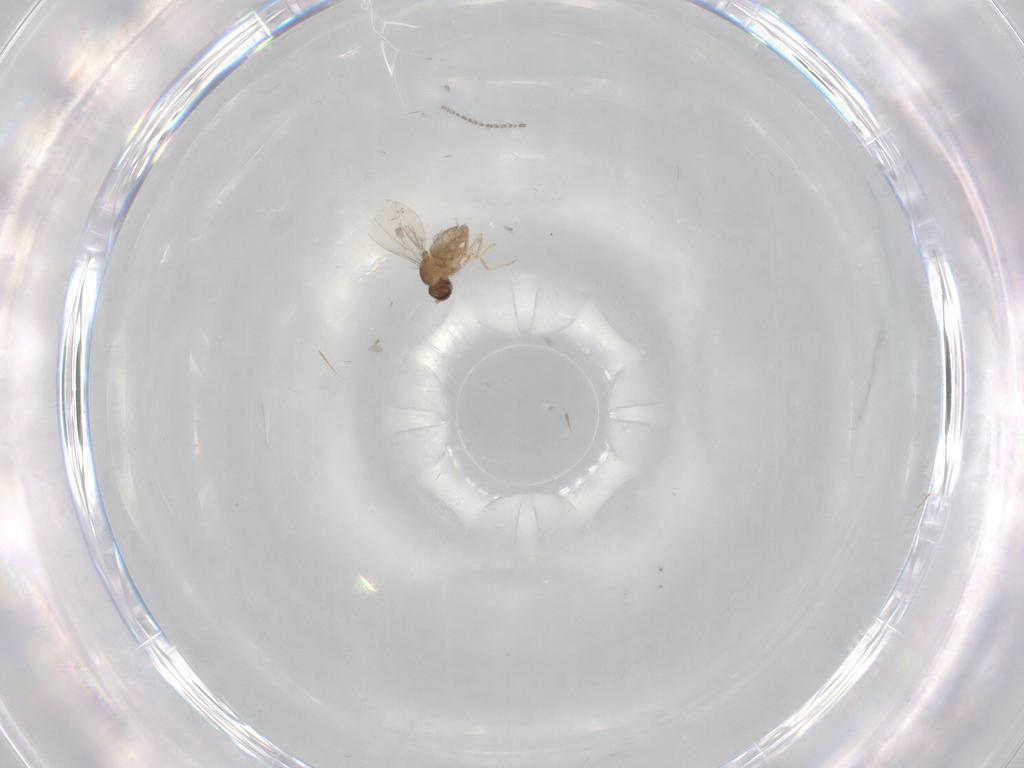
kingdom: Animalia
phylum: Arthropoda
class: Insecta
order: Diptera
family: Cecidomyiidae
